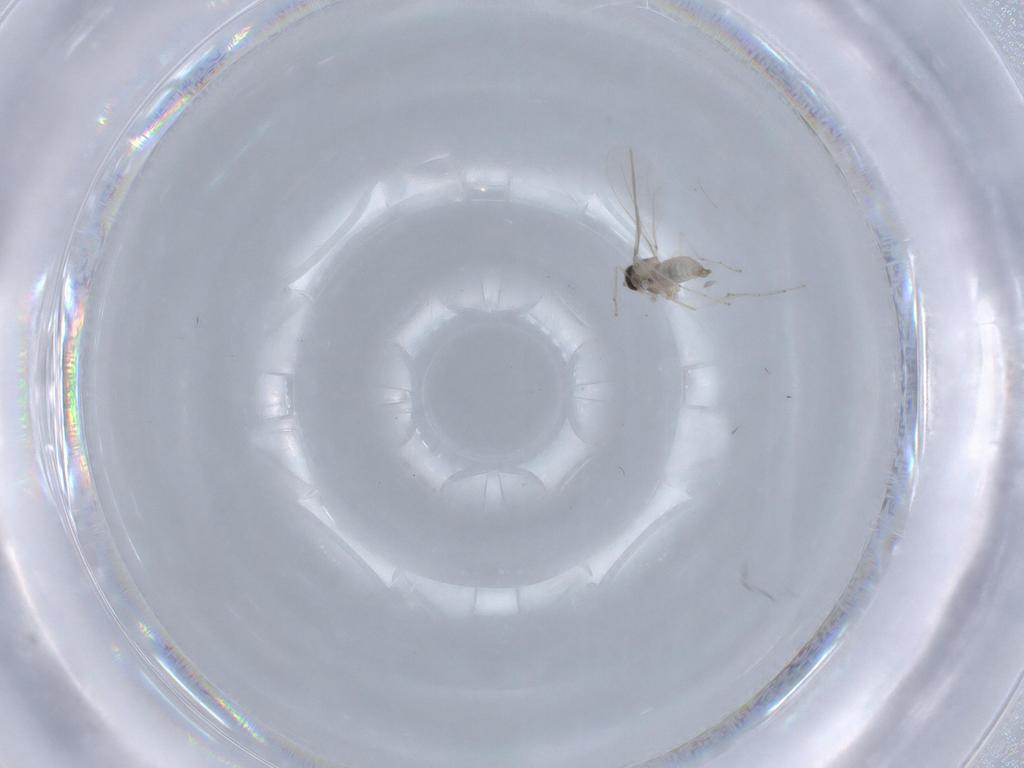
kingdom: Animalia
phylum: Arthropoda
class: Insecta
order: Diptera
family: Cecidomyiidae
